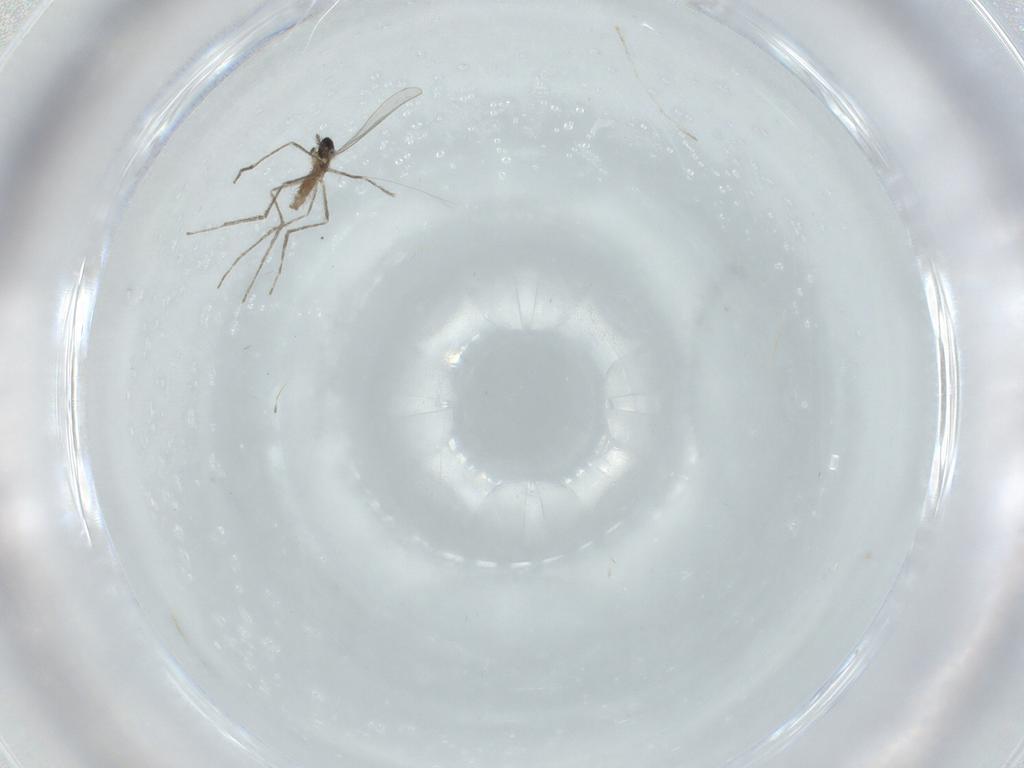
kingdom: Animalia
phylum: Arthropoda
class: Insecta
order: Diptera
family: Cecidomyiidae
